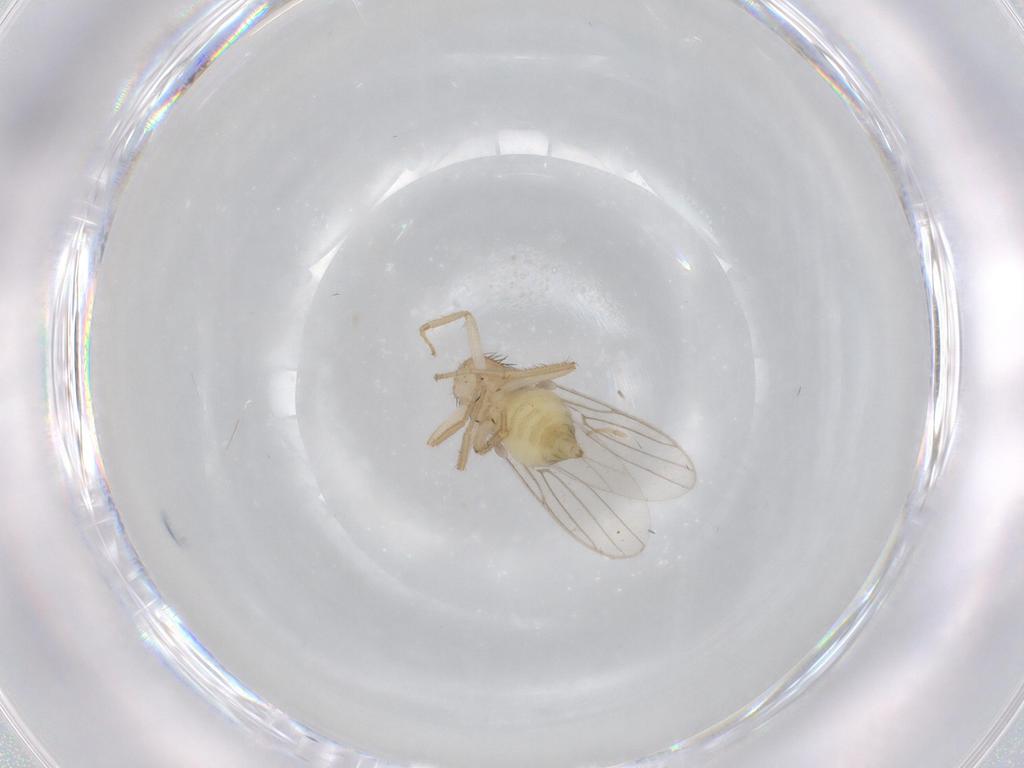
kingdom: Animalia
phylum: Arthropoda
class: Insecta
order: Diptera
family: Hybotidae
